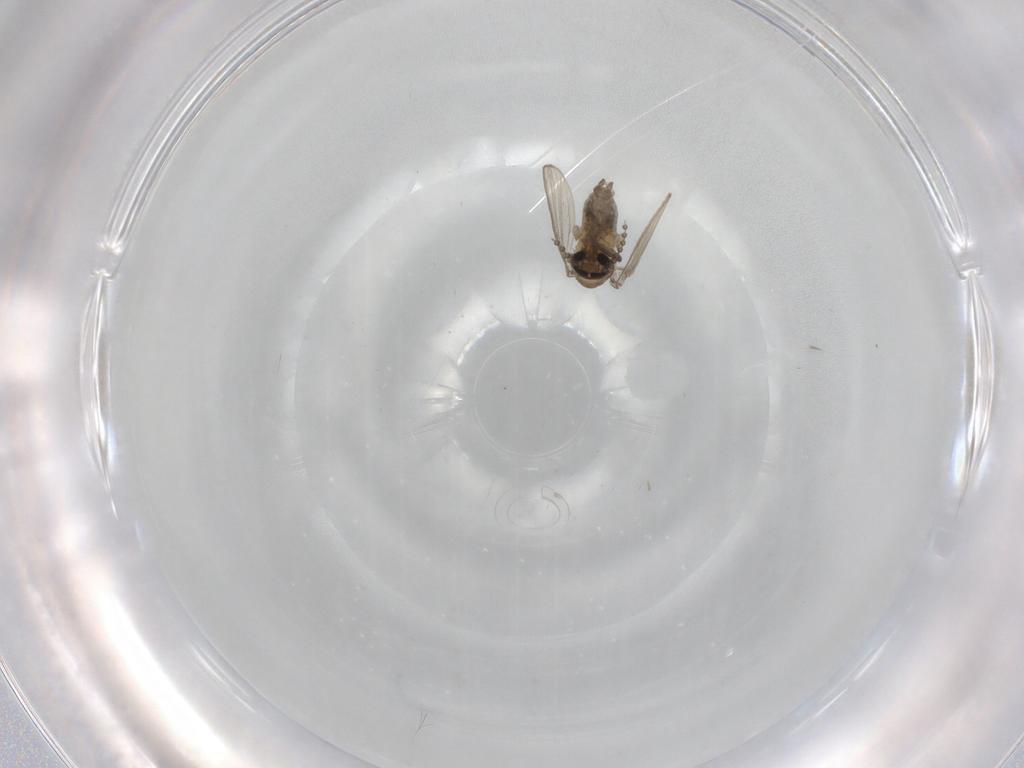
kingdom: Animalia
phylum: Arthropoda
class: Insecta
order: Diptera
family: Psychodidae
